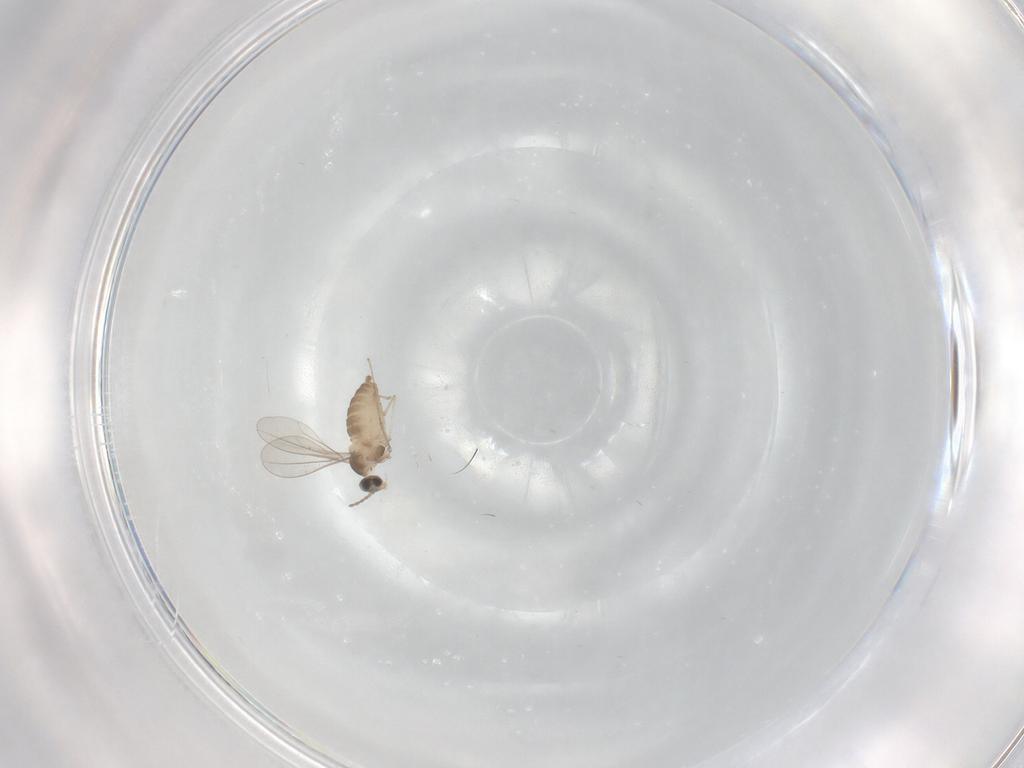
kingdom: Animalia
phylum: Arthropoda
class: Insecta
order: Diptera
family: Cecidomyiidae
